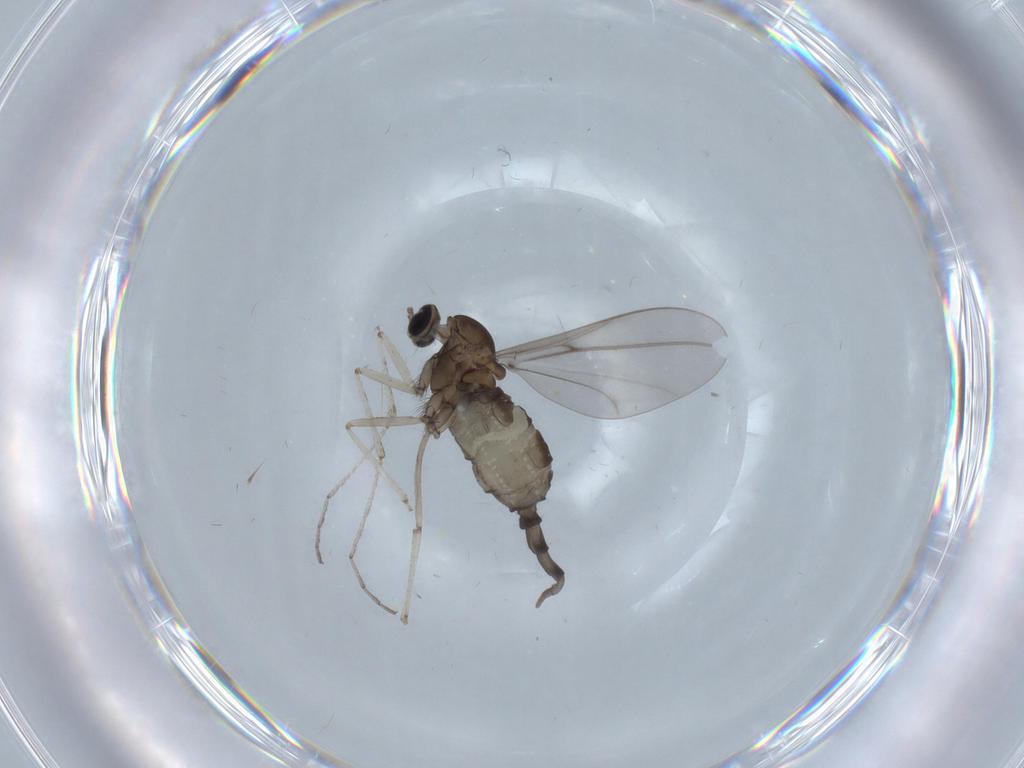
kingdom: Animalia
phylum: Arthropoda
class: Insecta
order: Diptera
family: Cecidomyiidae
